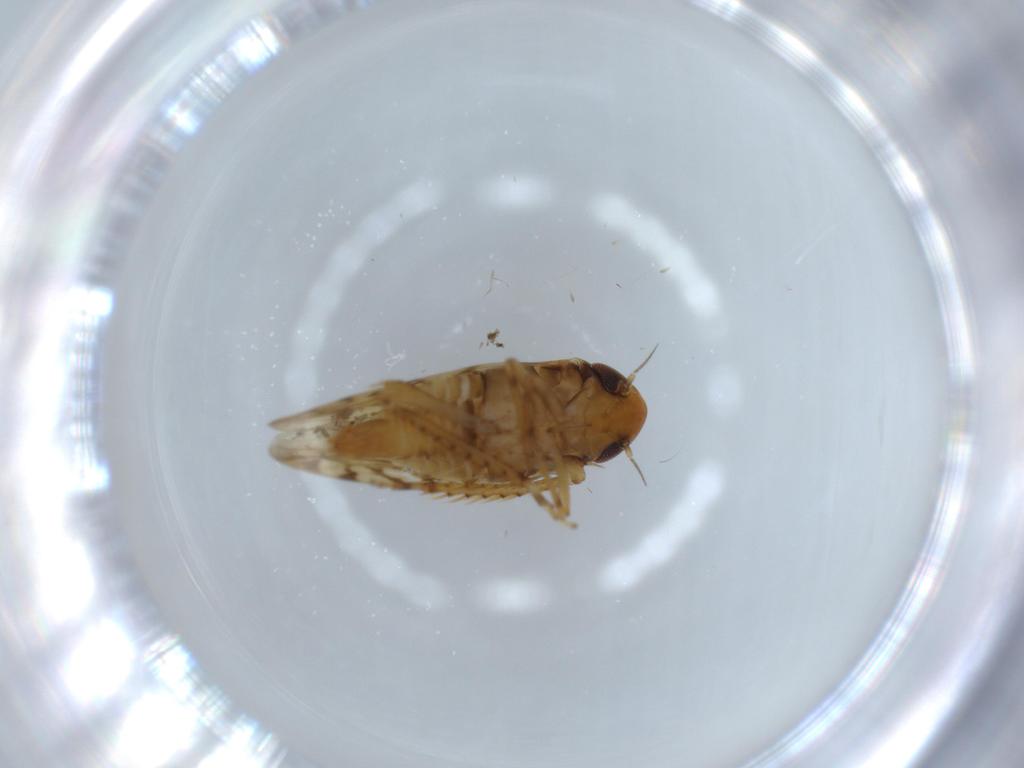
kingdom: Animalia
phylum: Arthropoda
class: Insecta
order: Hemiptera
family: Cicadellidae
